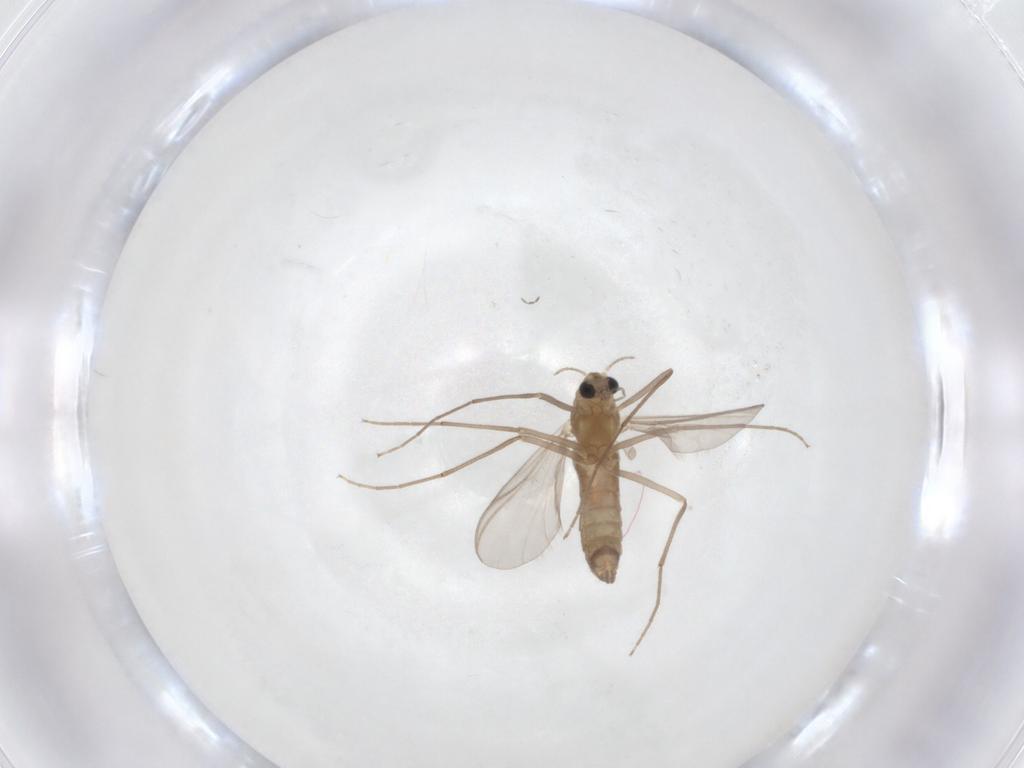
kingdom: Animalia
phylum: Arthropoda
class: Insecta
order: Diptera
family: Chironomidae
